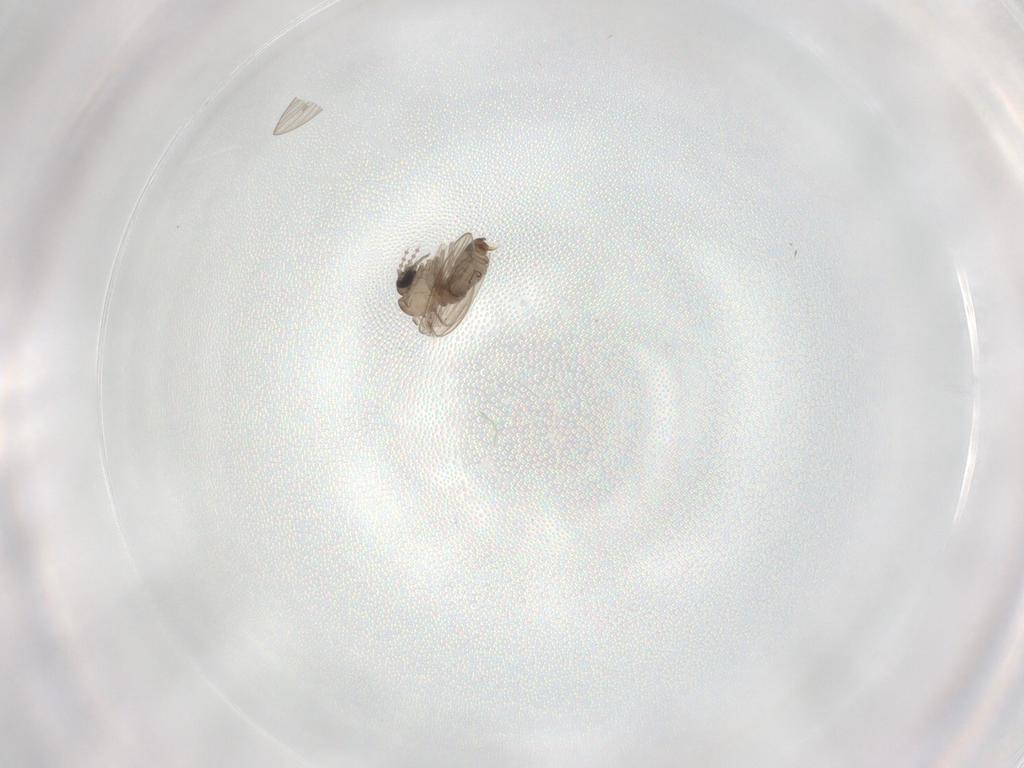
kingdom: Animalia
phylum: Arthropoda
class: Insecta
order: Diptera
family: Psychodidae
